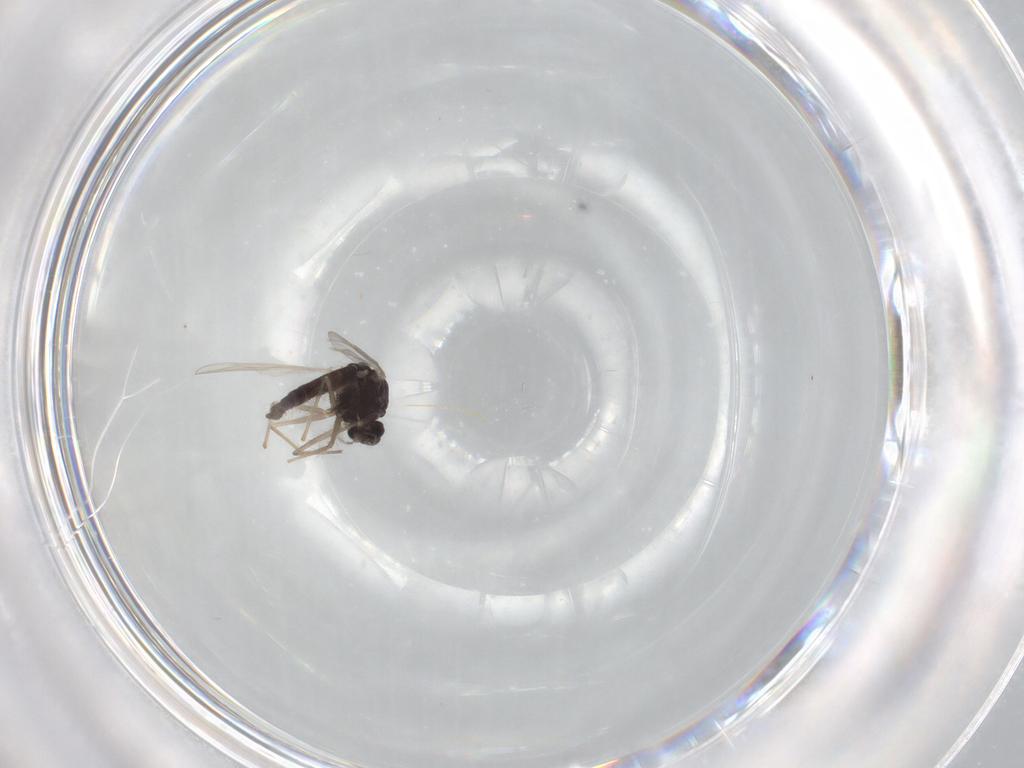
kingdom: Animalia
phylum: Arthropoda
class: Insecta
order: Diptera
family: Chironomidae
